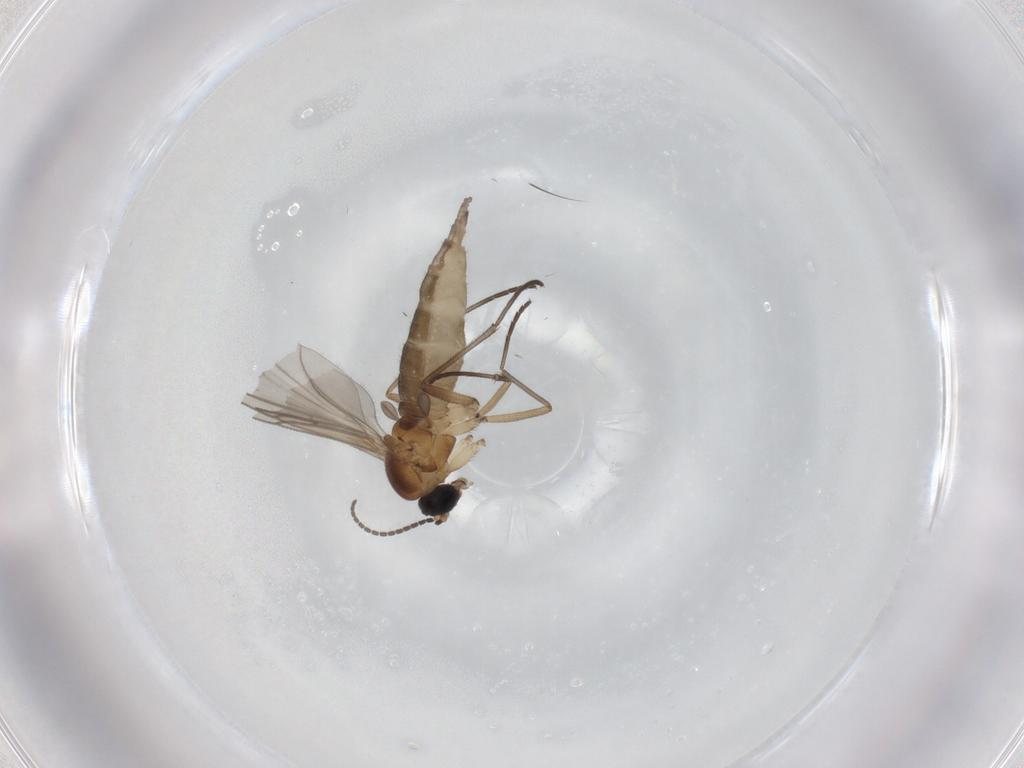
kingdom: Animalia
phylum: Arthropoda
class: Insecta
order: Diptera
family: Sciaridae
